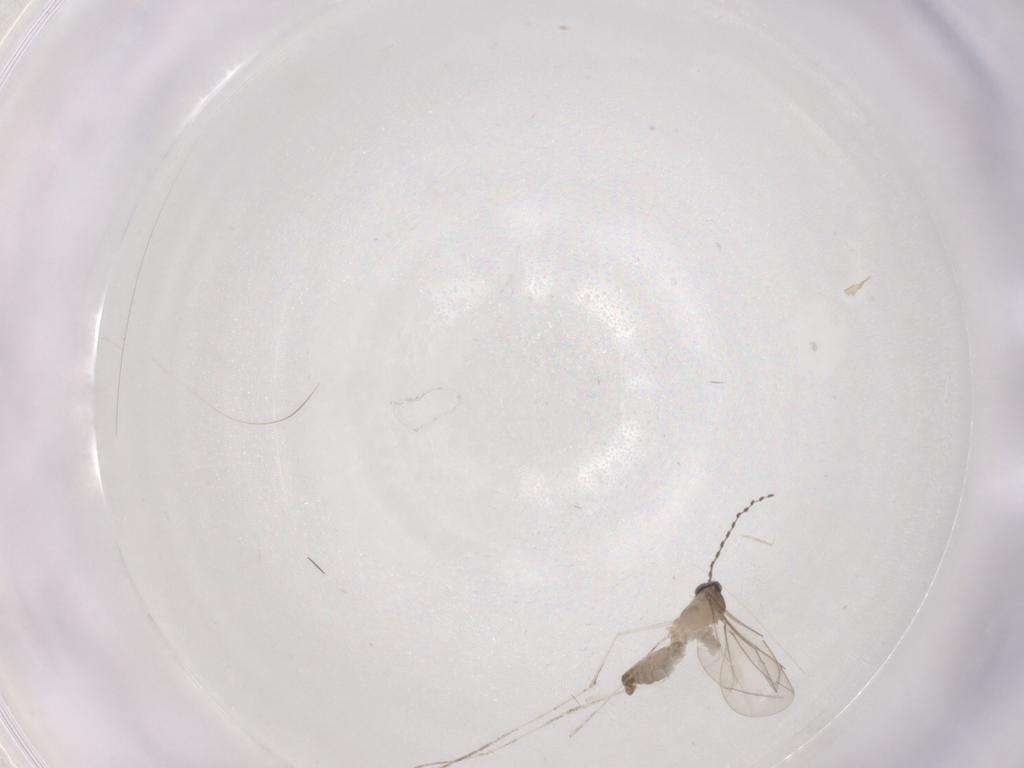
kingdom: Animalia
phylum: Arthropoda
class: Insecta
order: Diptera
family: Cecidomyiidae
